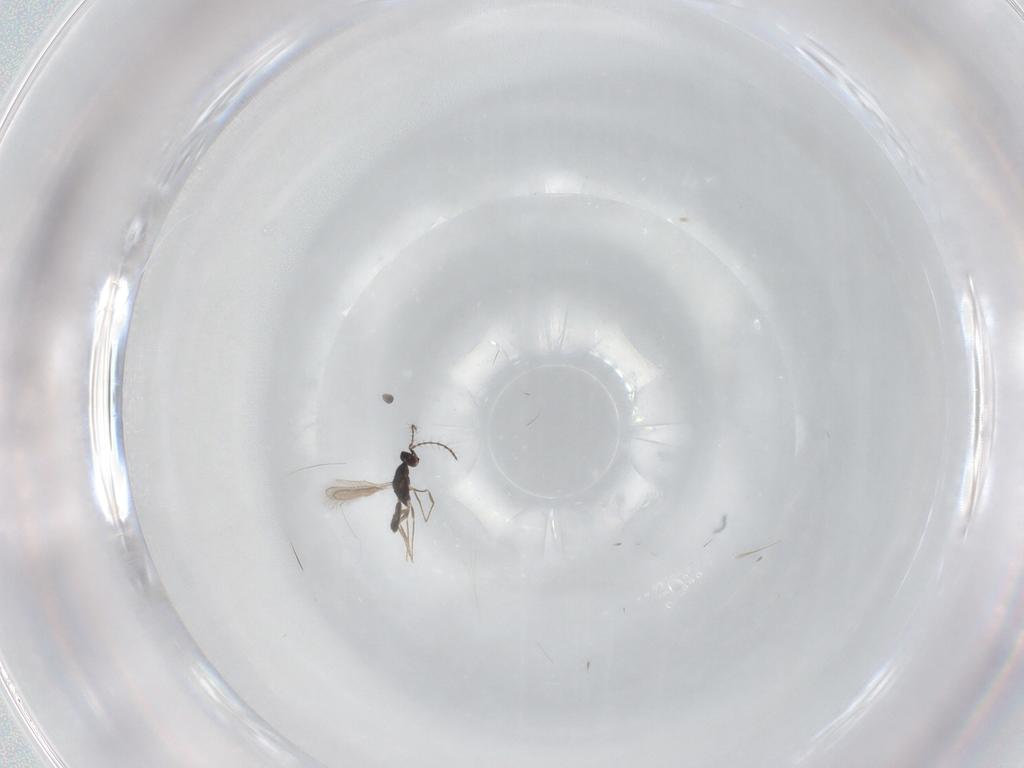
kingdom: Animalia
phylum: Arthropoda
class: Insecta
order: Hymenoptera
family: Pteromalidae
